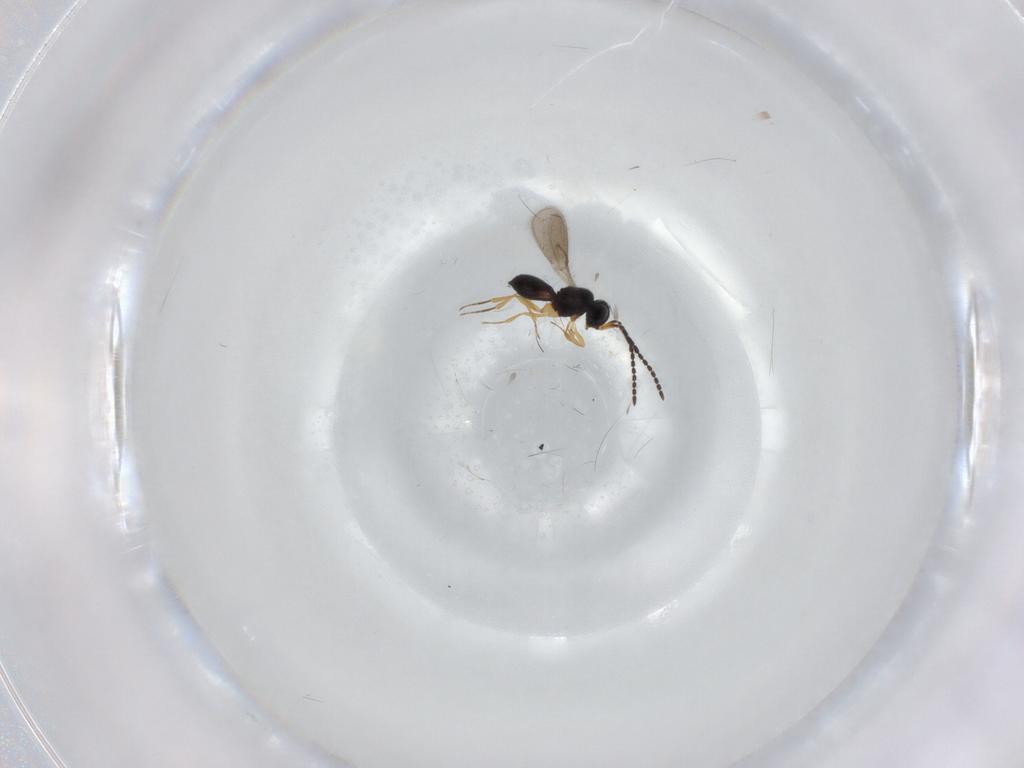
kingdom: Animalia
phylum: Arthropoda
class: Insecta
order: Hymenoptera
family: Scelionidae
